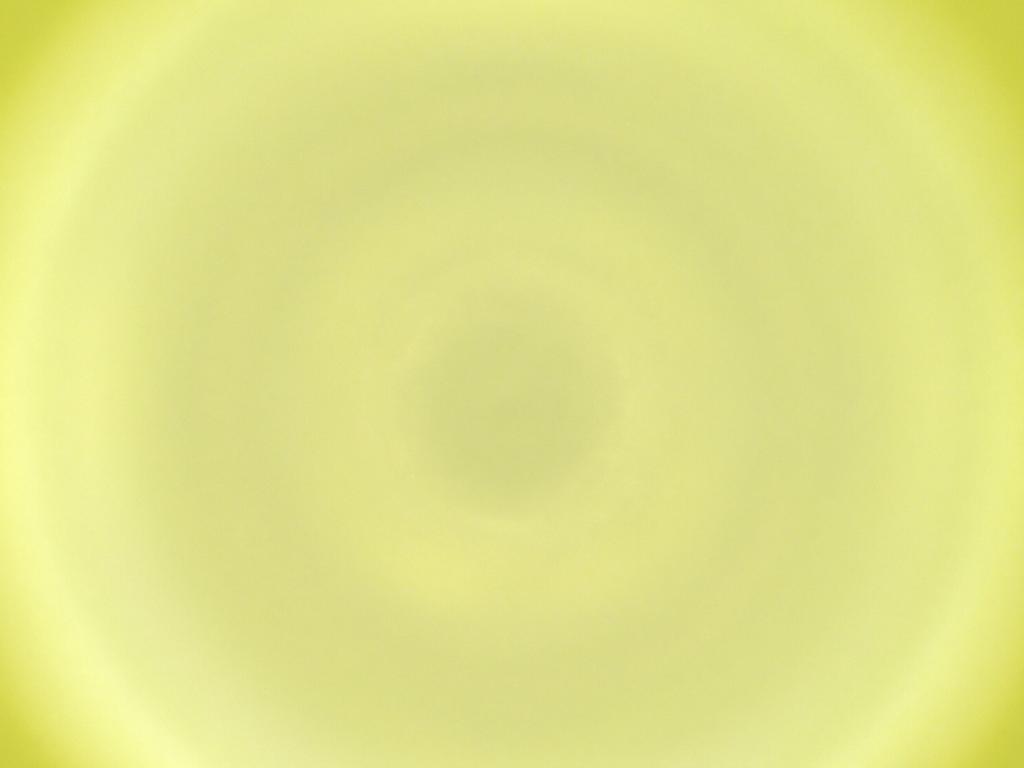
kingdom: Animalia
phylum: Arthropoda
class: Insecta
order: Diptera
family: Cecidomyiidae
